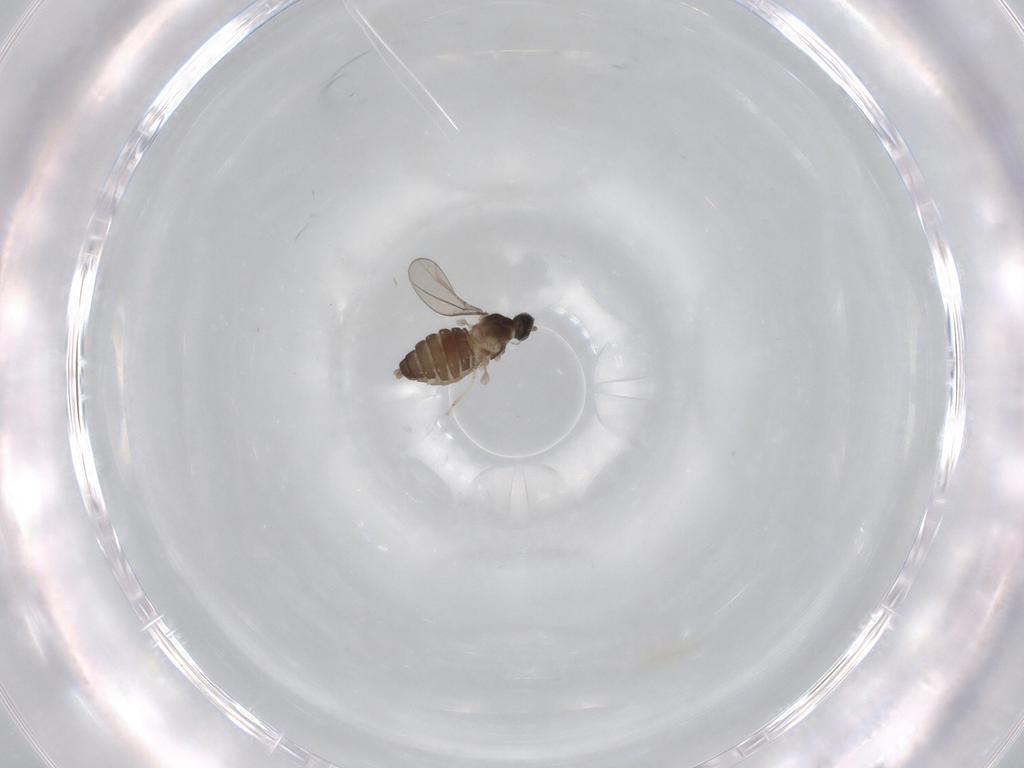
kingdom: Animalia
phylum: Arthropoda
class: Insecta
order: Diptera
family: Cecidomyiidae
